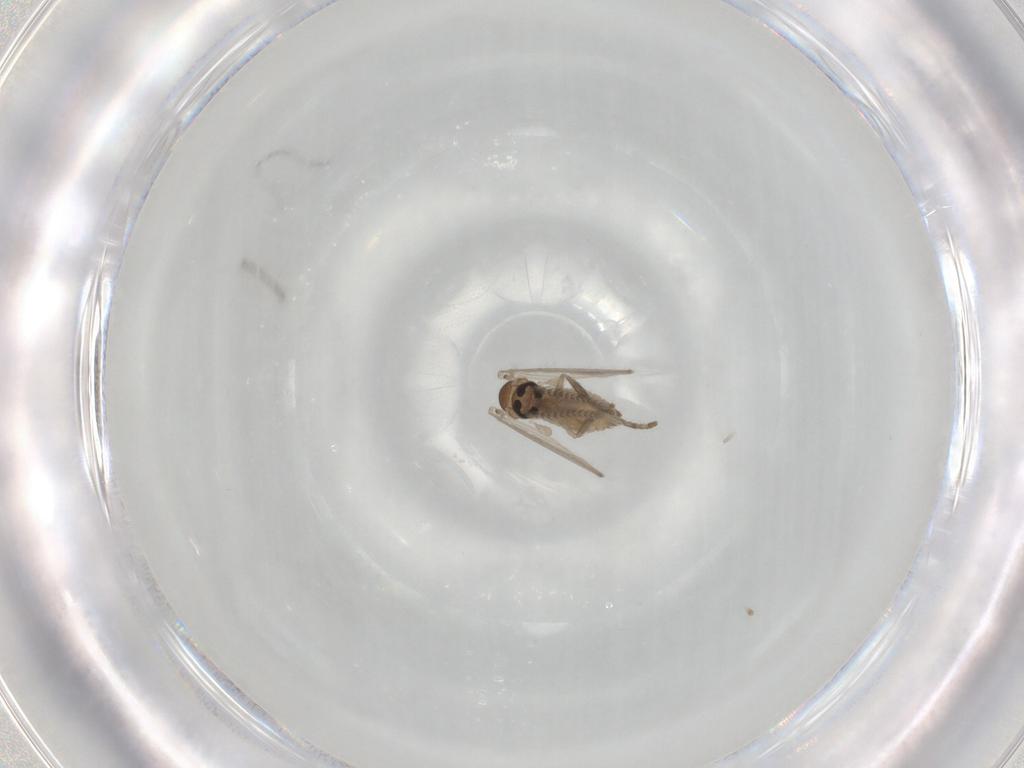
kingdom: Animalia
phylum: Arthropoda
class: Insecta
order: Diptera
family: Psychodidae
